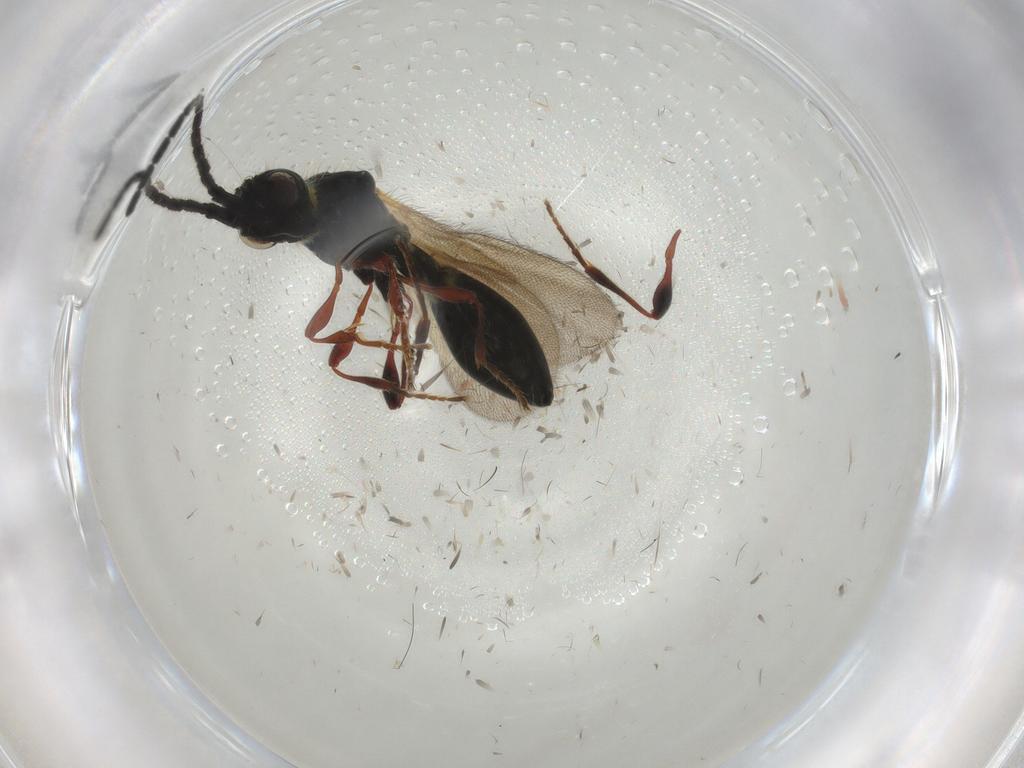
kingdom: Animalia
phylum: Arthropoda
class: Insecta
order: Hymenoptera
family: Diapriidae
